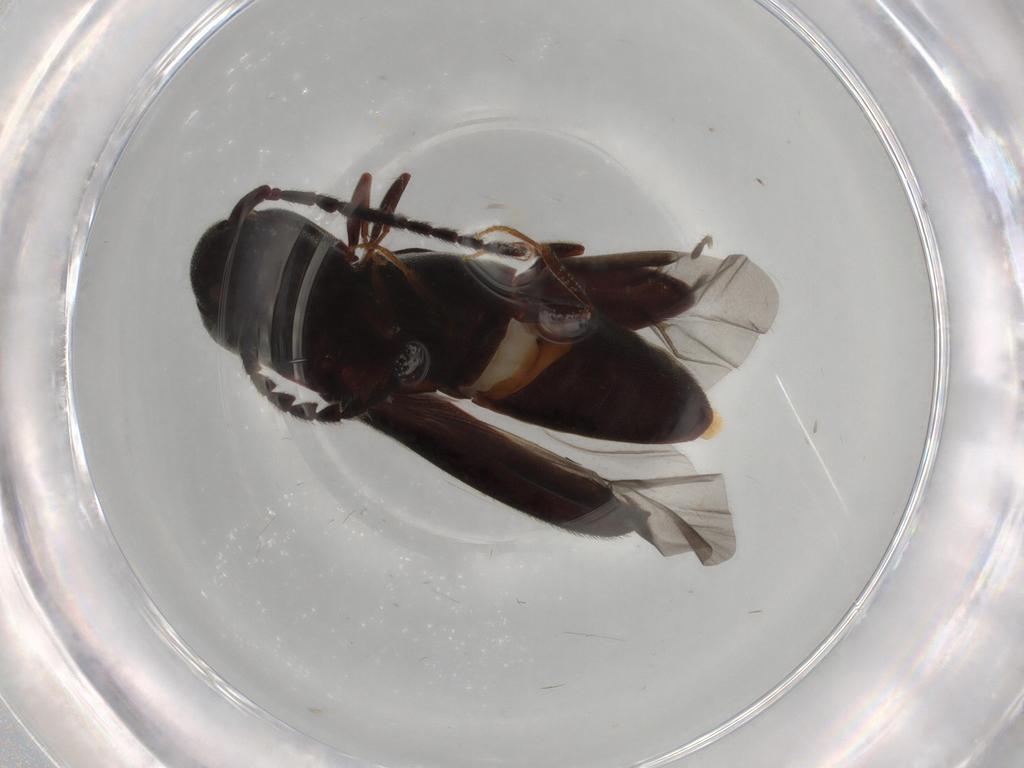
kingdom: Animalia
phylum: Arthropoda
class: Insecta
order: Coleoptera
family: Eucnemidae
